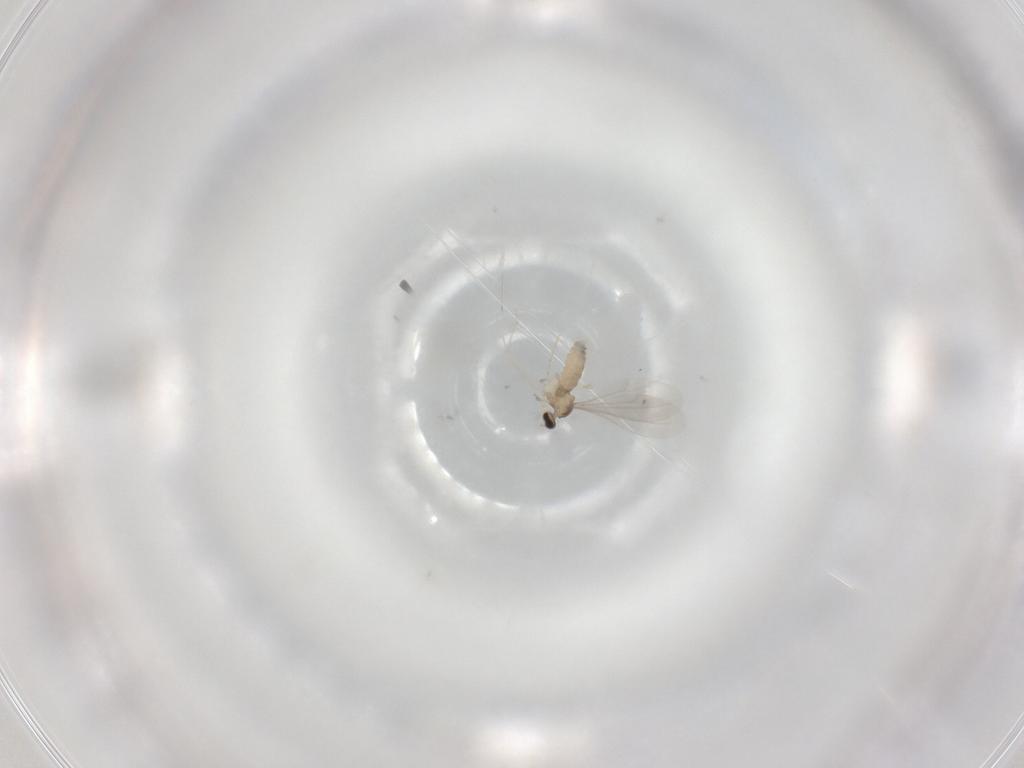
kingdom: Animalia
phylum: Arthropoda
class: Insecta
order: Diptera
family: Cecidomyiidae
